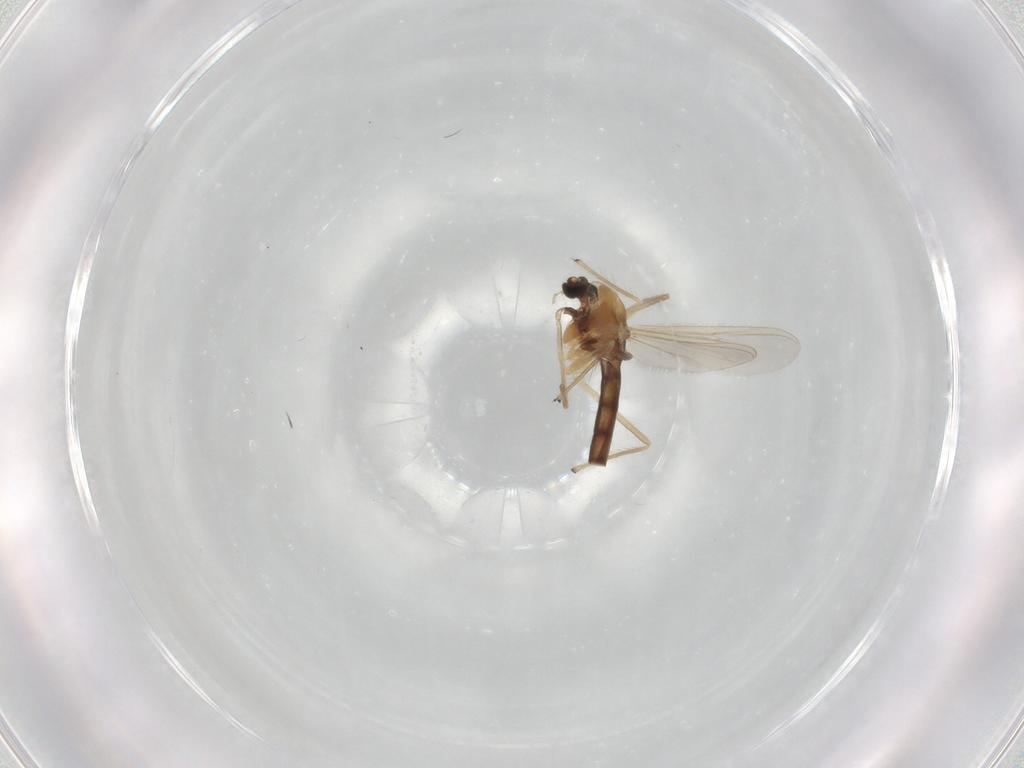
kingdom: Animalia
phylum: Arthropoda
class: Insecta
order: Diptera
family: Chironomidae
